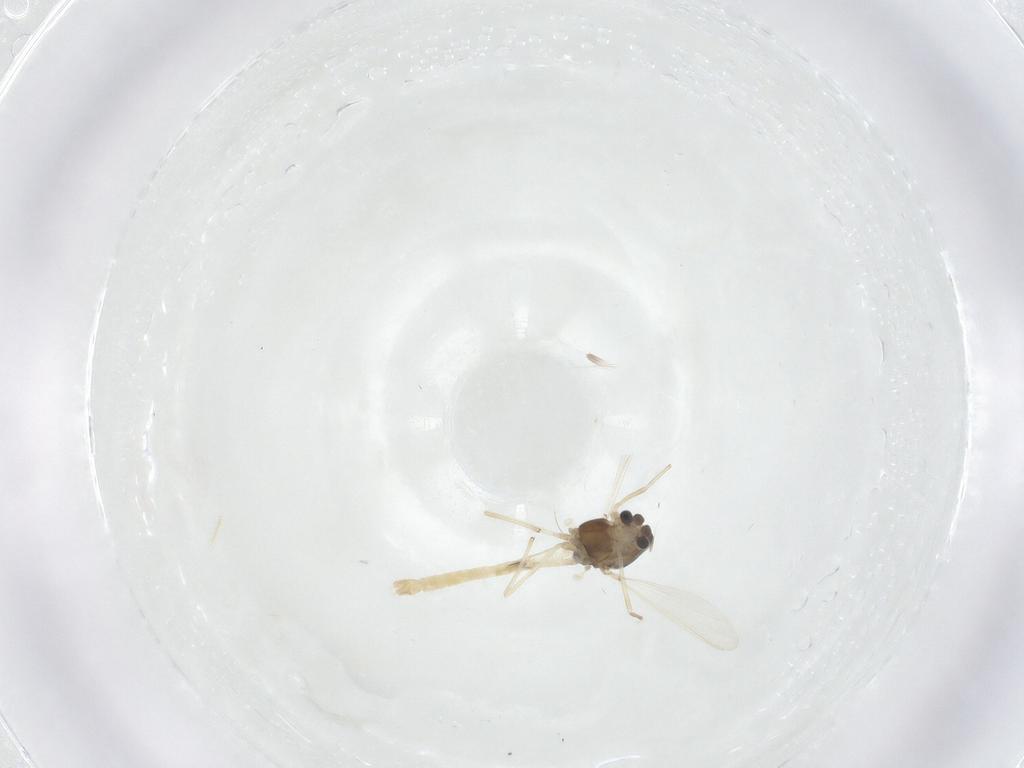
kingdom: Animalia
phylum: Arthropoda
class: Insecta
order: Diptera
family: Chironomidae
